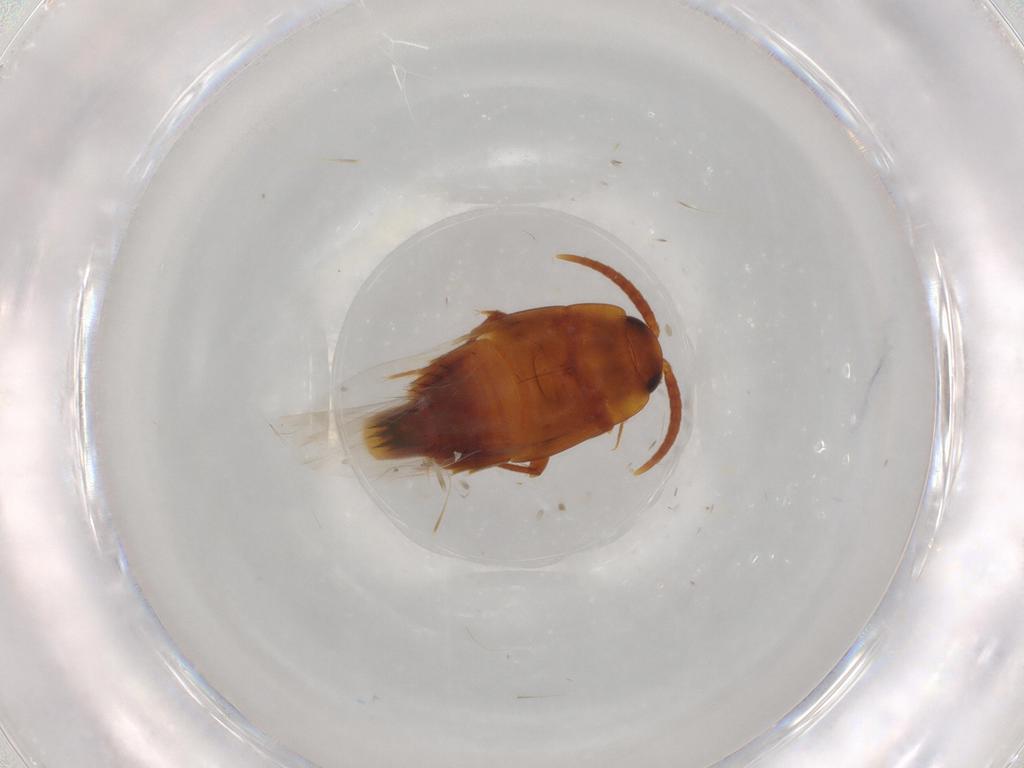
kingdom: Animalia
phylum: Arthropoda
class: Insecta
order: Coleoptera
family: Staphylinidae
